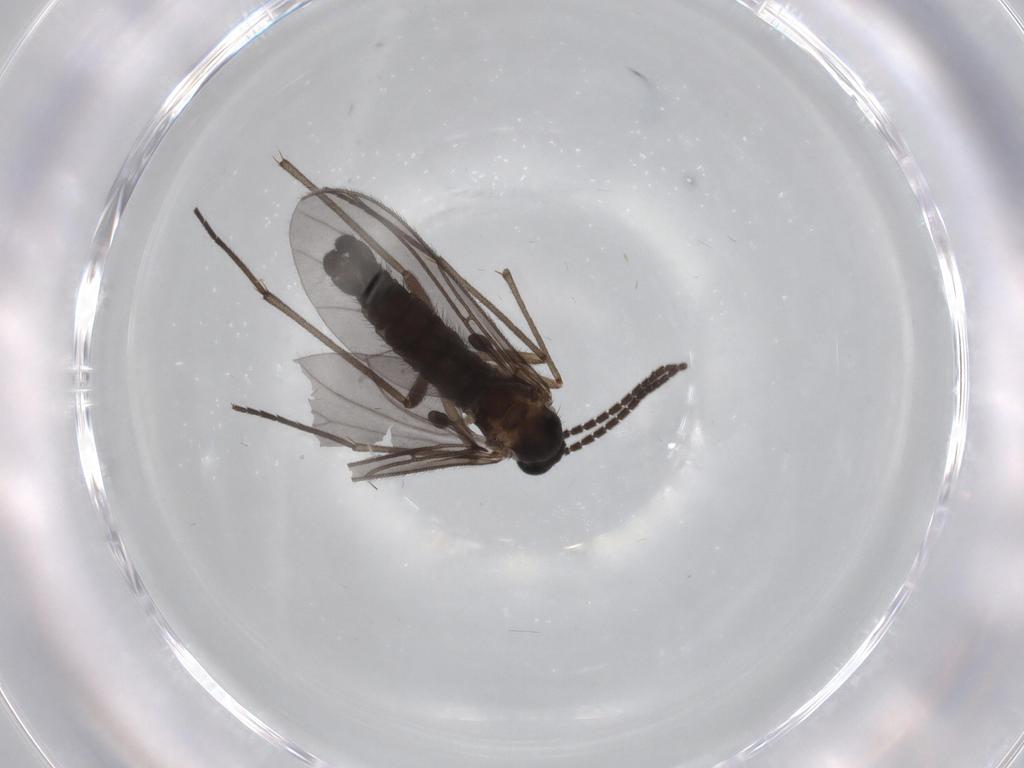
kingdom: Animalia
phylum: Arthropoda
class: Insecta
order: Diptera
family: Sciaridae
